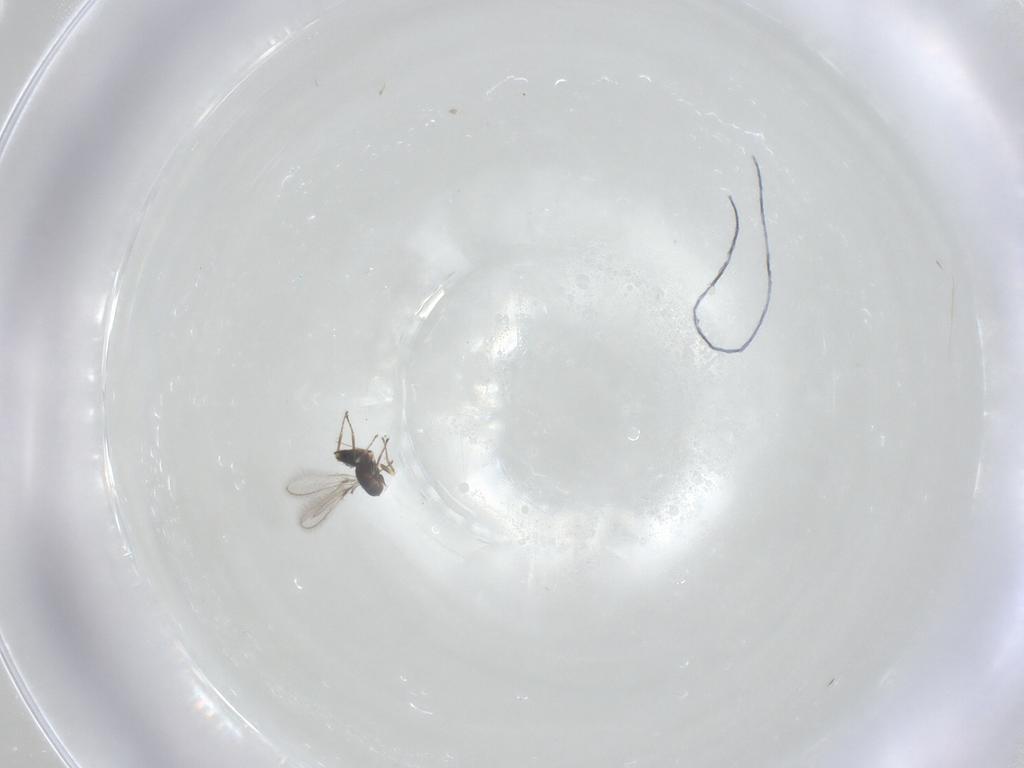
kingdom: Animalia
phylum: Arthropoda
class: Insecta
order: Hymenoptera
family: Mymaridae
